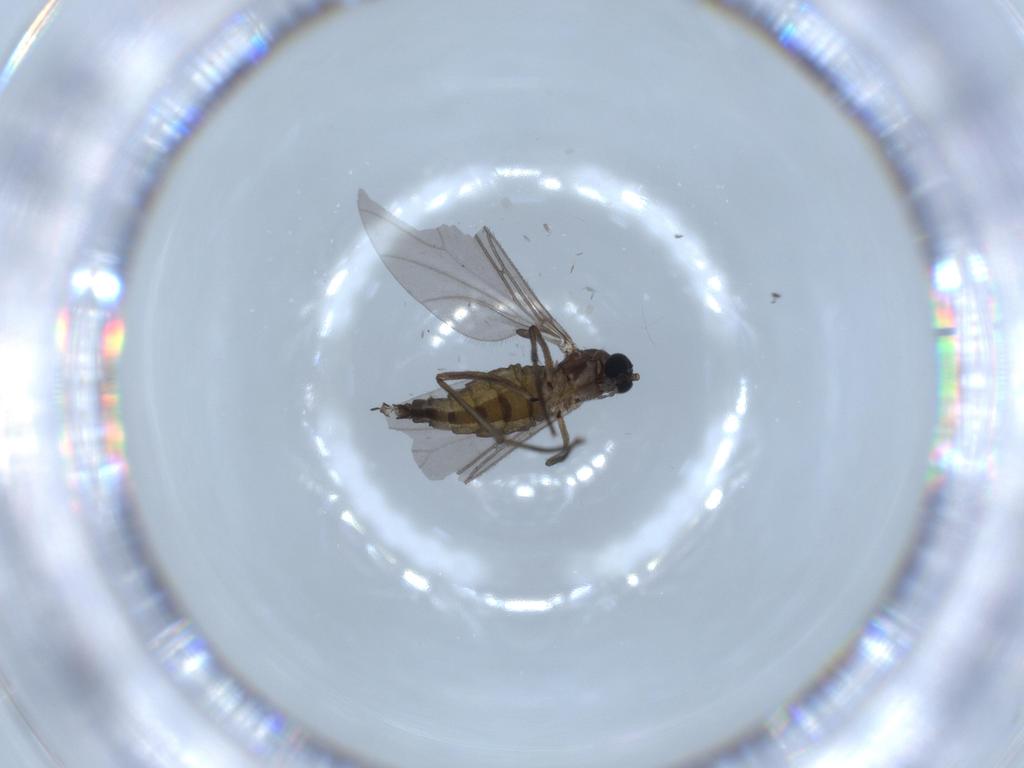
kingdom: Animalia
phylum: Arthropoda
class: Insecta
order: Diptera
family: Sciaridae
